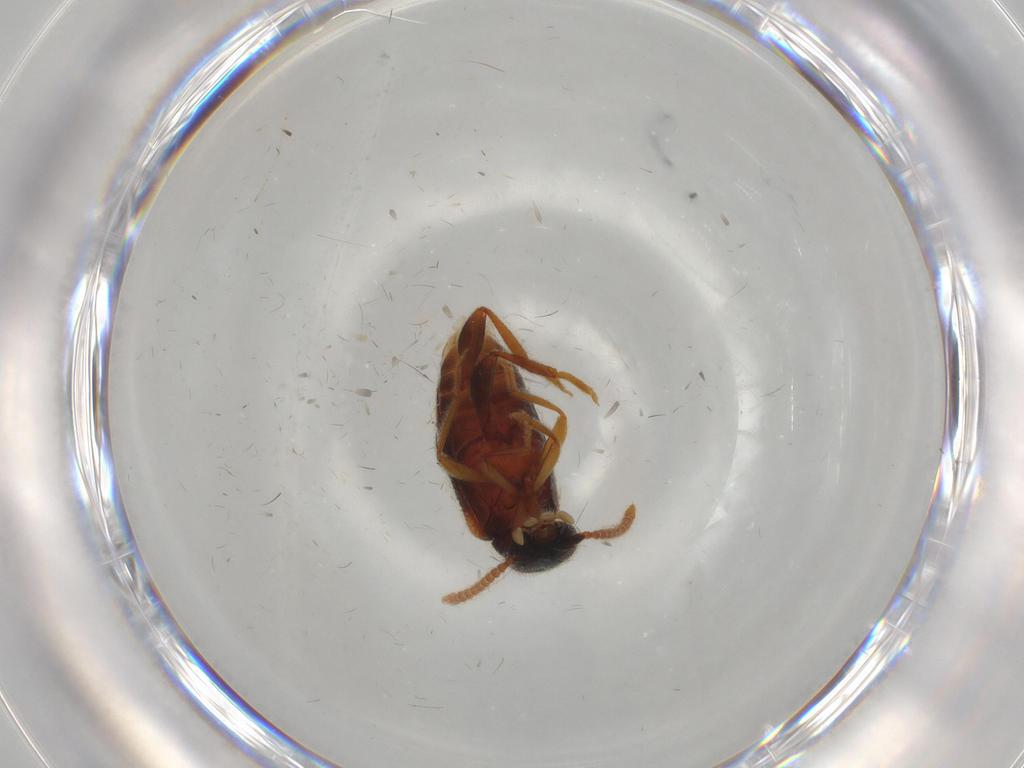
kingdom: Animalia
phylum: Arthropoda
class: Insecta
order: Coleoptera
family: Aderidae
